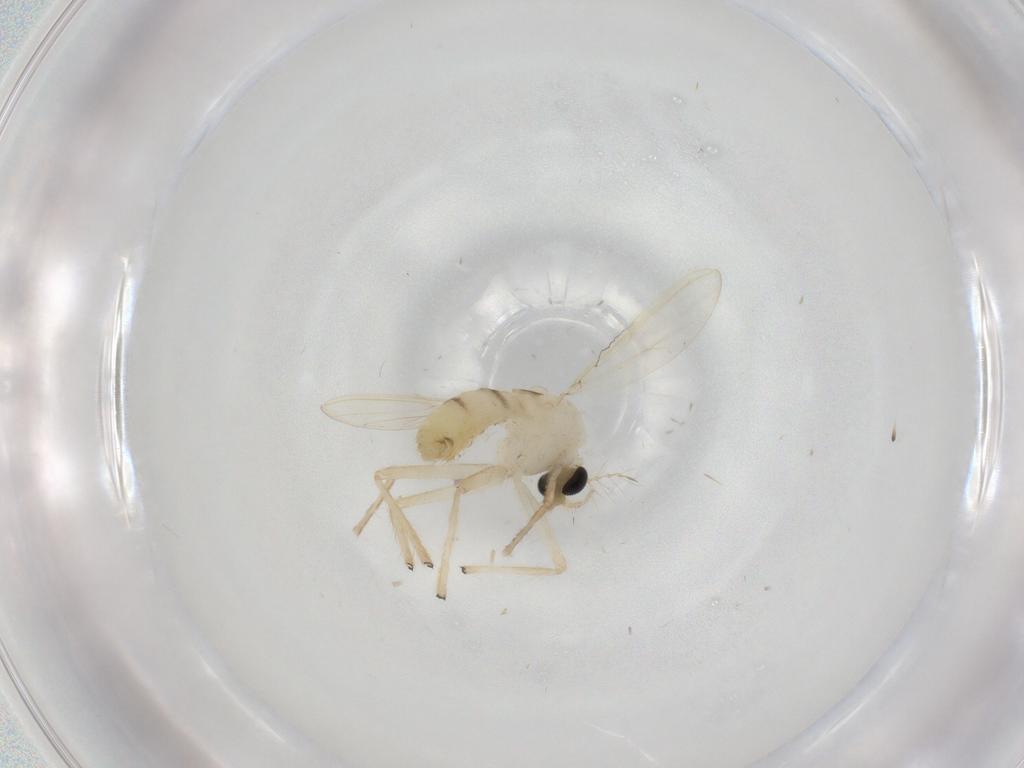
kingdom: Animalia
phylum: Arthropoda
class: Insecta
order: Diptera
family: Chironomidae
